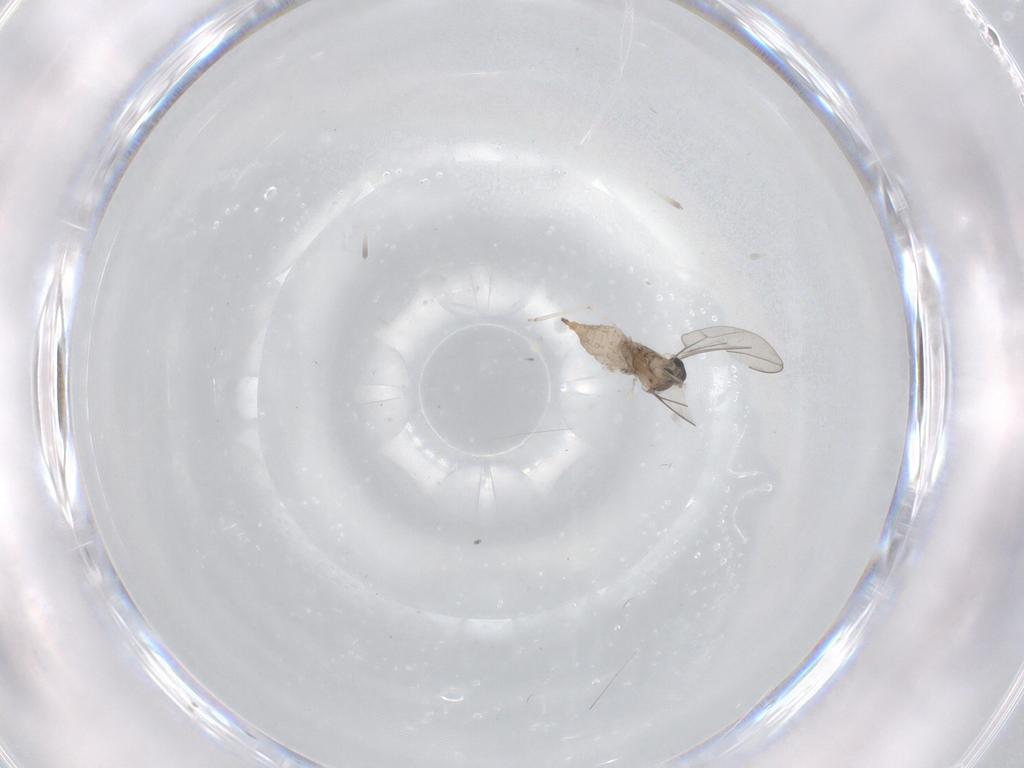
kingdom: Animalia
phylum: Arthropoda
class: Insecta
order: Diptera
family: Cecidomyiidae
